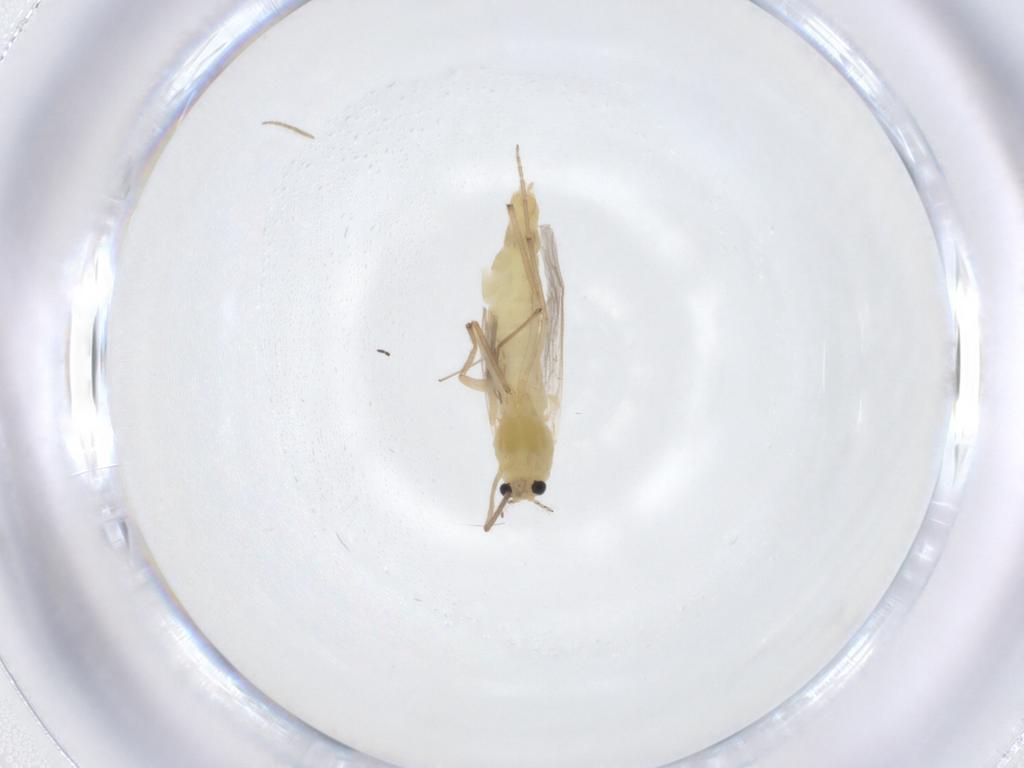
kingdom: Animalia
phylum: Arthropoda
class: Insecta
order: Diptera
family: Chironomidae
